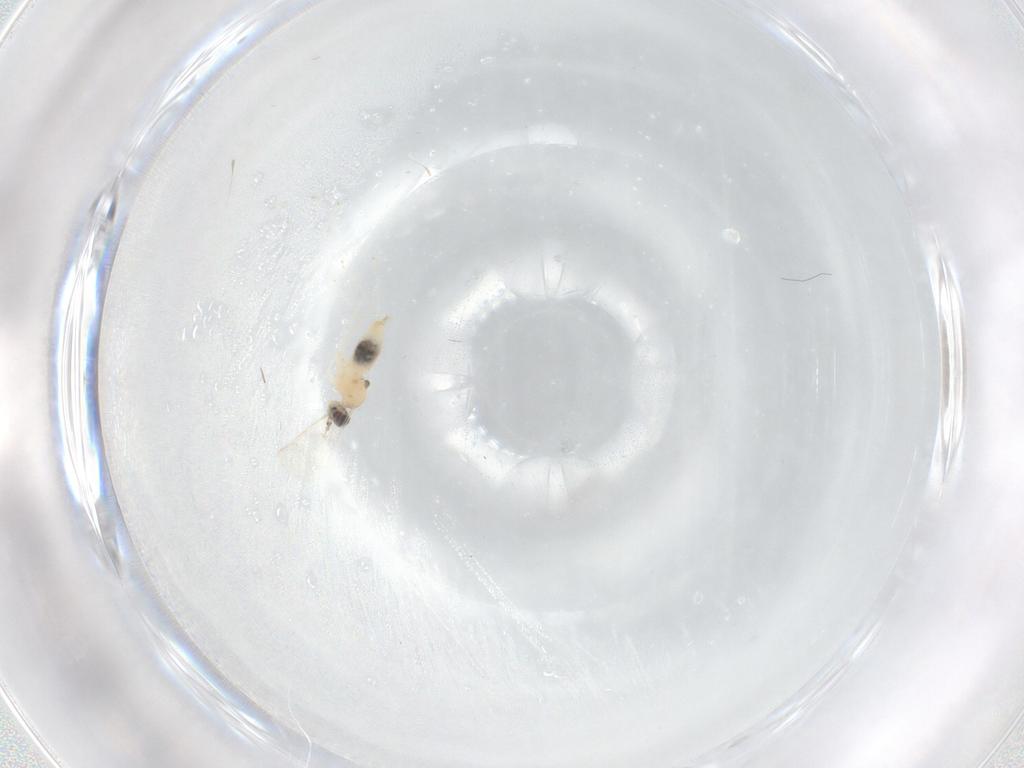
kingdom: Animalia
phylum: Arthropoda
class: Insecta
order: Diptera
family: Cecidomyiidae
